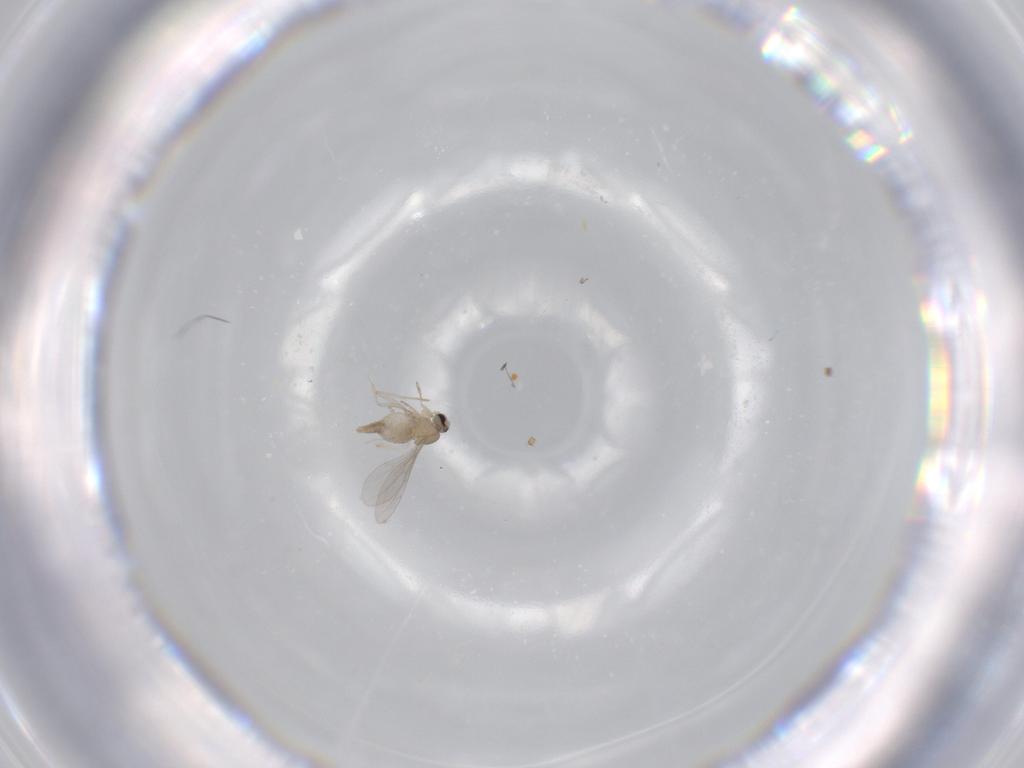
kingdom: Animalia
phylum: Arthropoda
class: Insecta
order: Diptera
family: Cecidomyiidae
